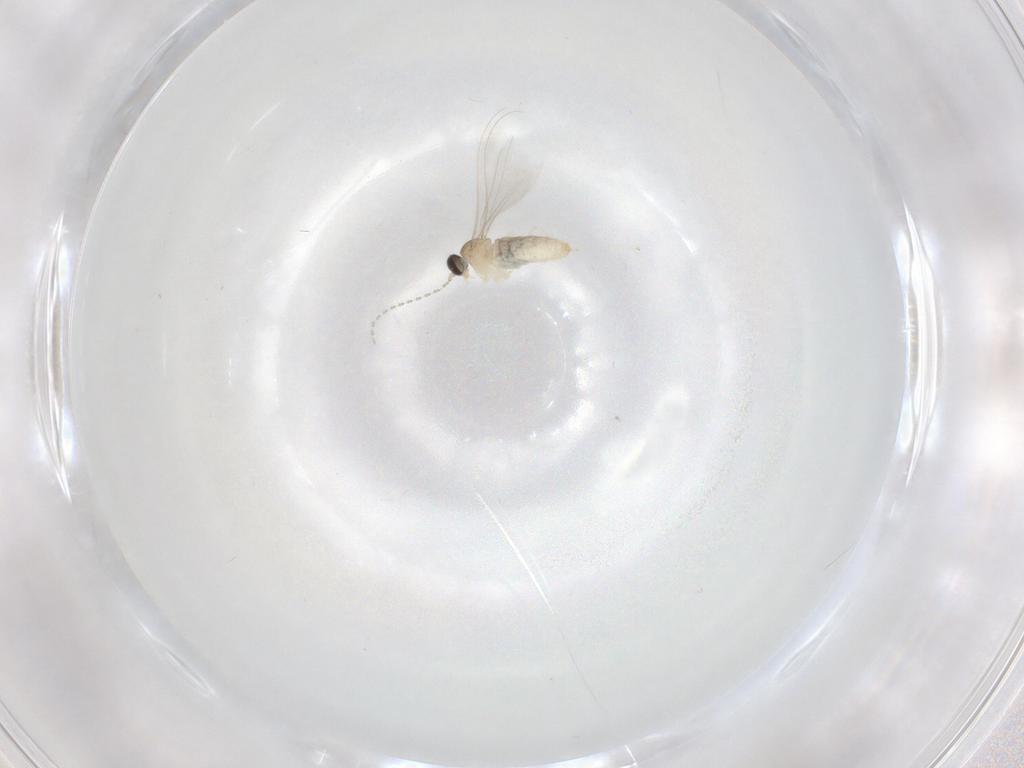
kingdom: Animalia
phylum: Arthropoda
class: Insecta
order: Diptera
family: Cecidomyiidae
